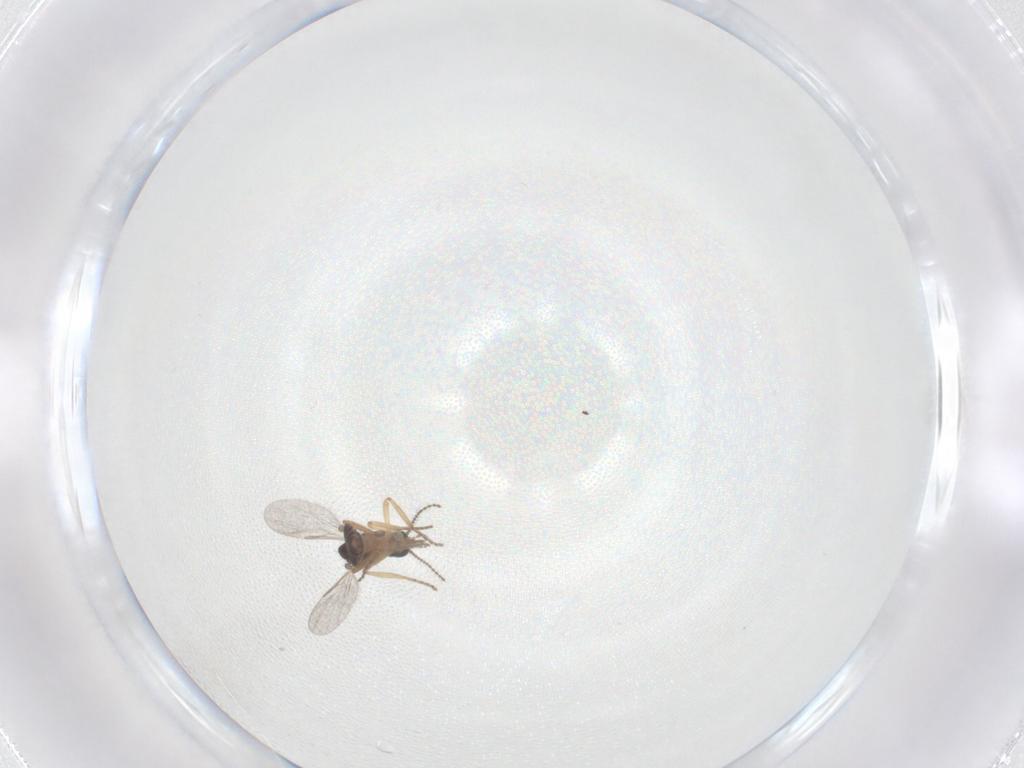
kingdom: Animalia
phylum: Arthropoda
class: Insecta
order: Diptera
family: Ceratopogonidae
